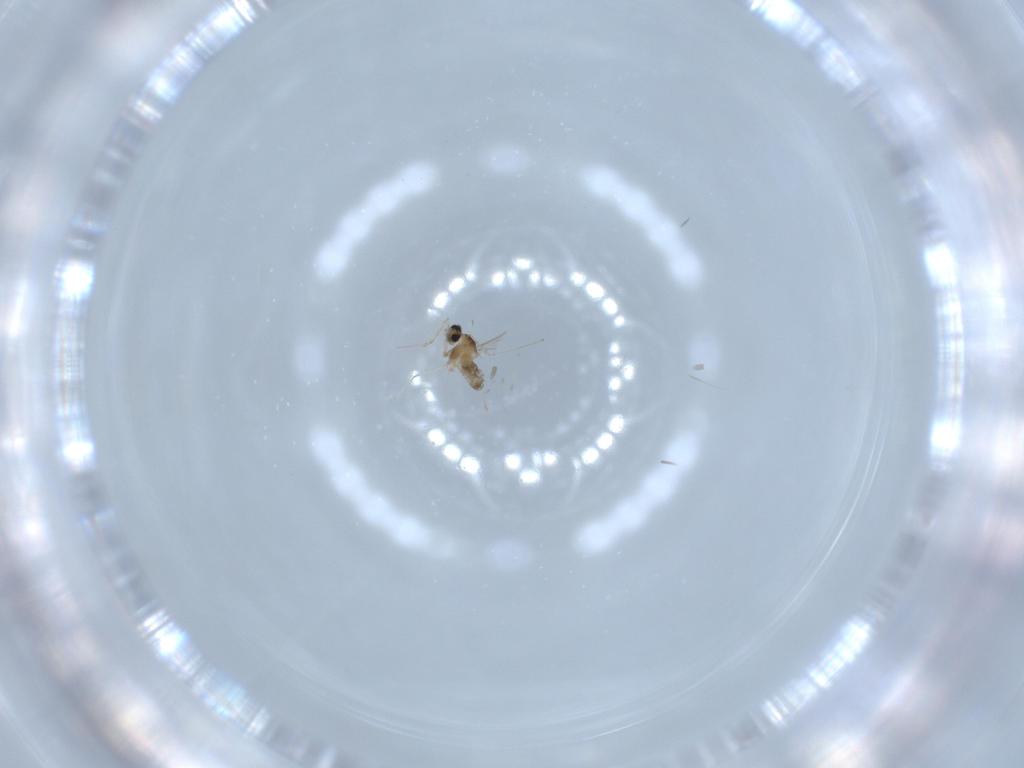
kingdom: Animalia
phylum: Arthropoda
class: Insecta
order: Diptera
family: Cecidomyiidae
